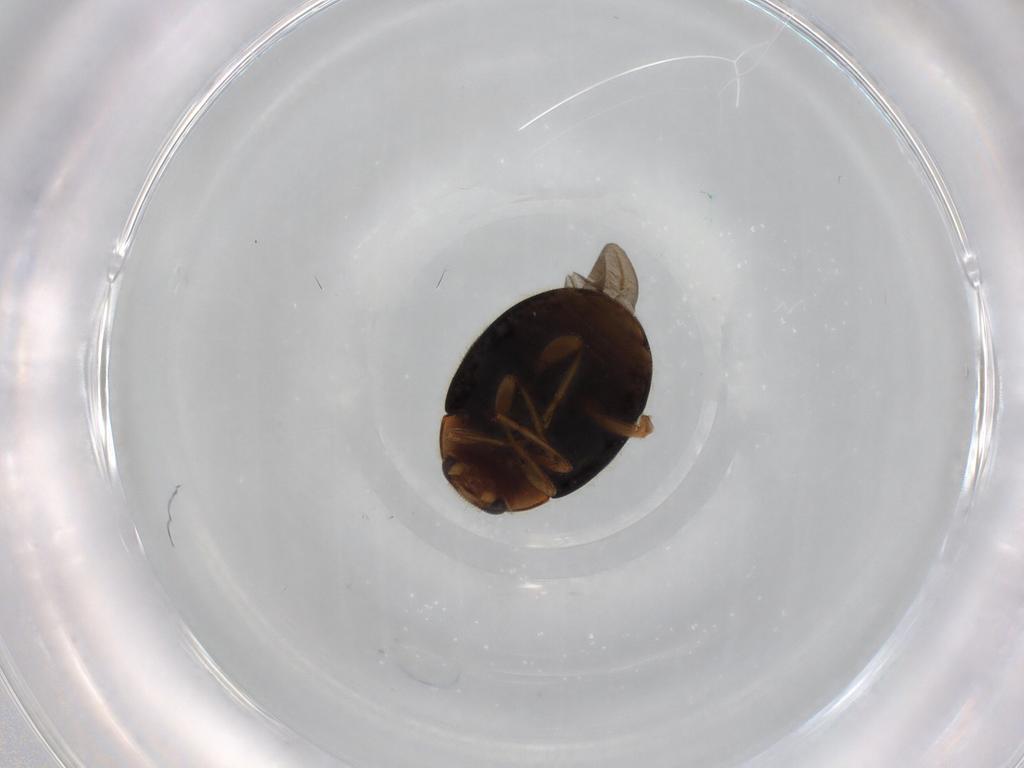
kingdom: Animalia
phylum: Arthropoda
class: Insecta
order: Coleoptera
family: Coccinellidae
